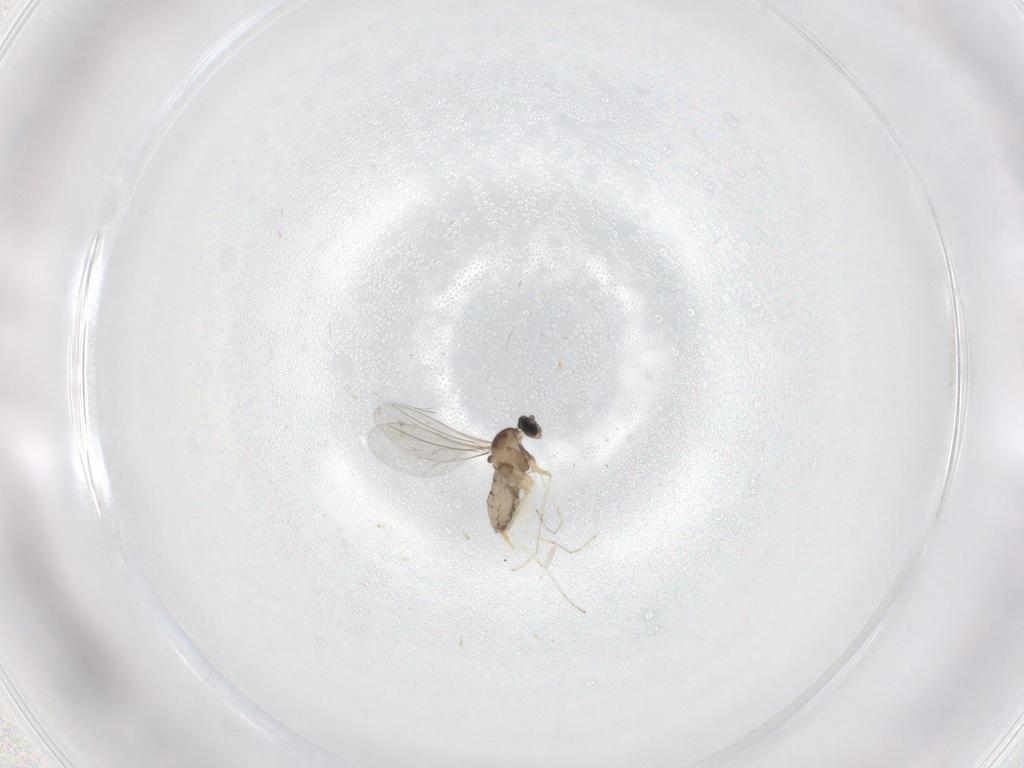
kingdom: Animalia
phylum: Arthropoda
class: Insecta
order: Diptera
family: Cecidomyiidae
